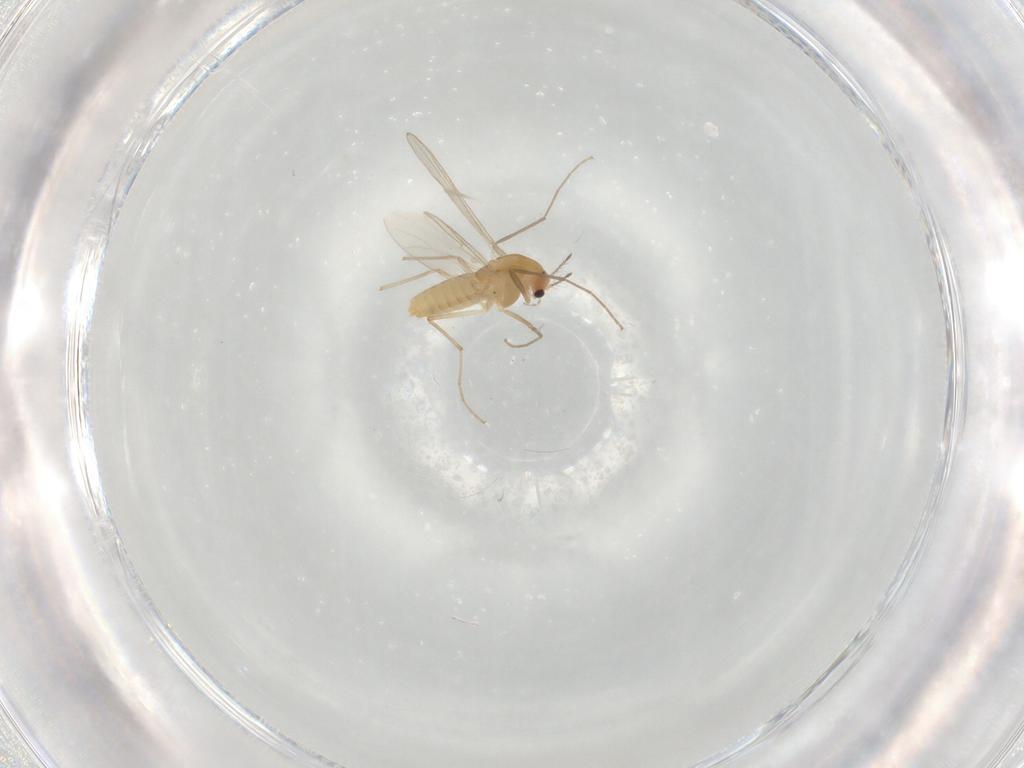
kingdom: Animalia
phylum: Arthropoda
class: Insecta
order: Diptera
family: Chironomidae
